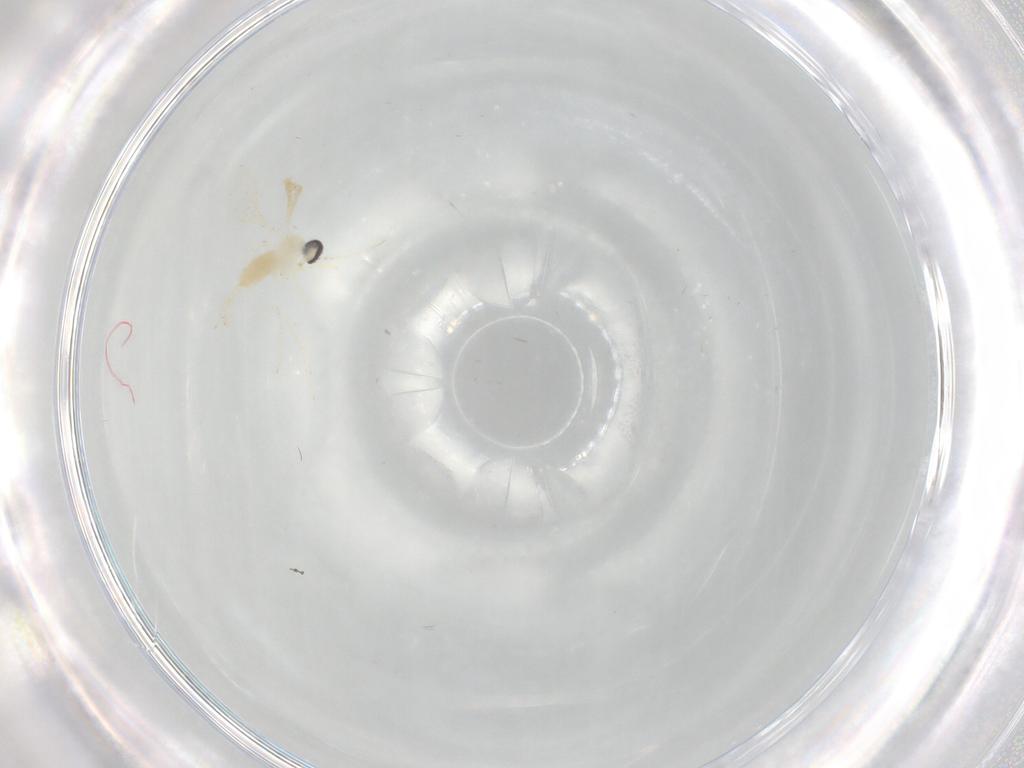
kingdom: Animalia
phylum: Arthropoda
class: Insecta
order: Diptera
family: Cecidomyiidae
